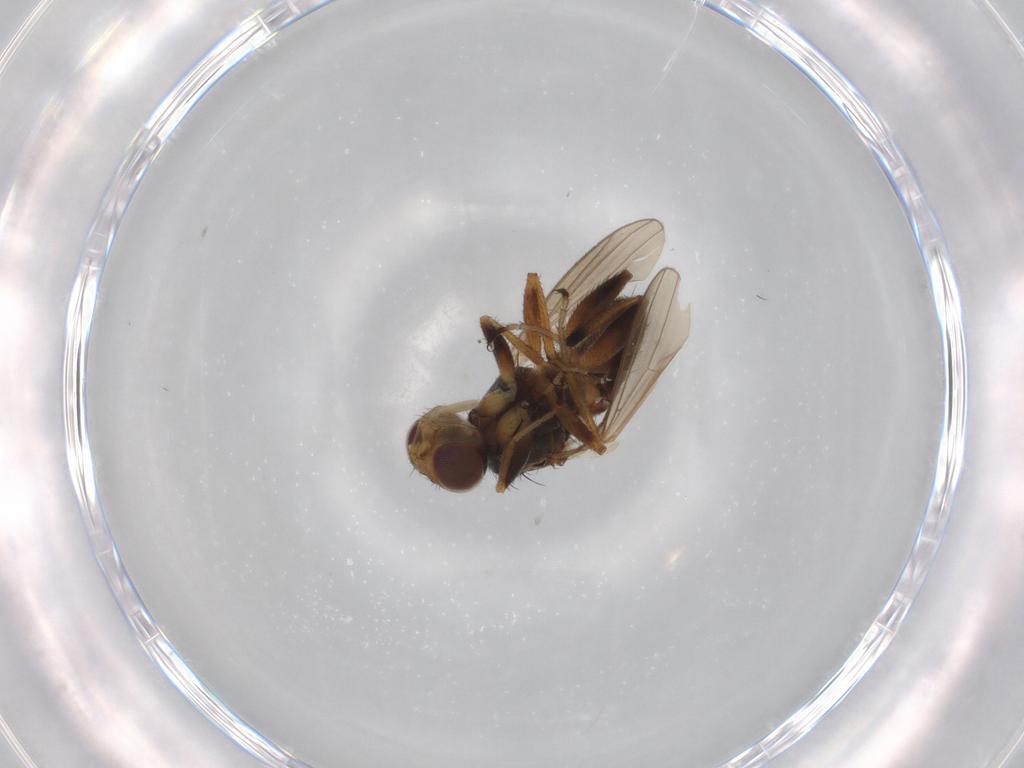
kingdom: Animalia
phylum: Arthropoda
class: Insecta
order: Diptera
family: Canacidae
